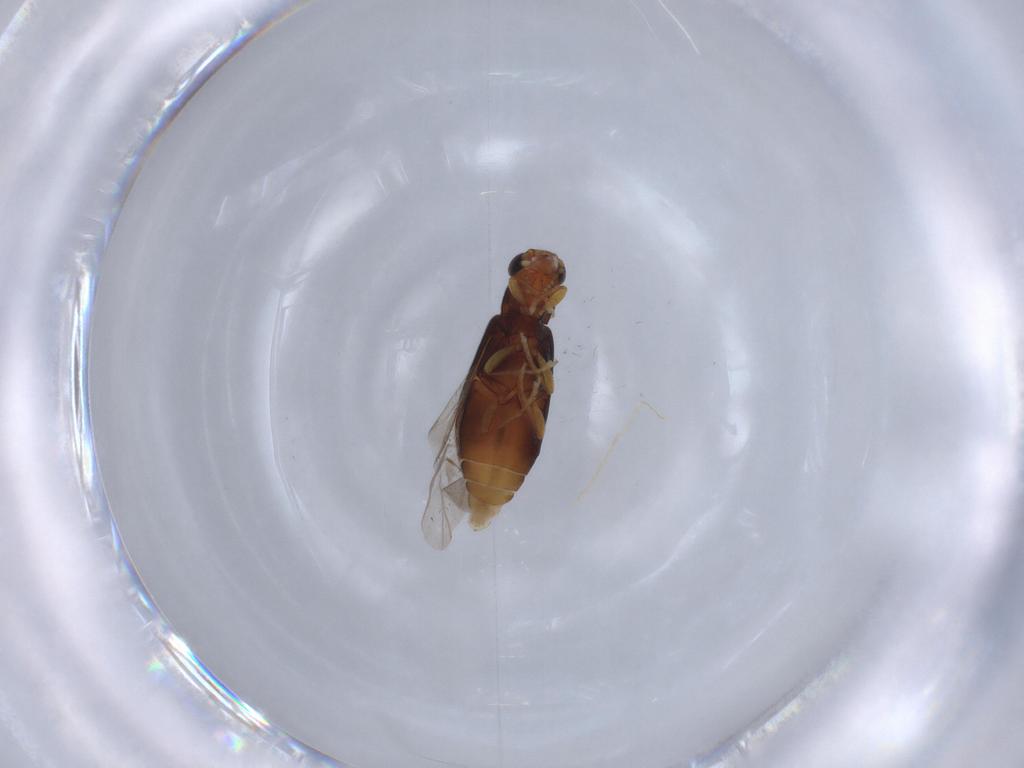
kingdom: Animalia
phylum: Arthropoda
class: Insecta
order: Coleoptera
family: Mycteridae
